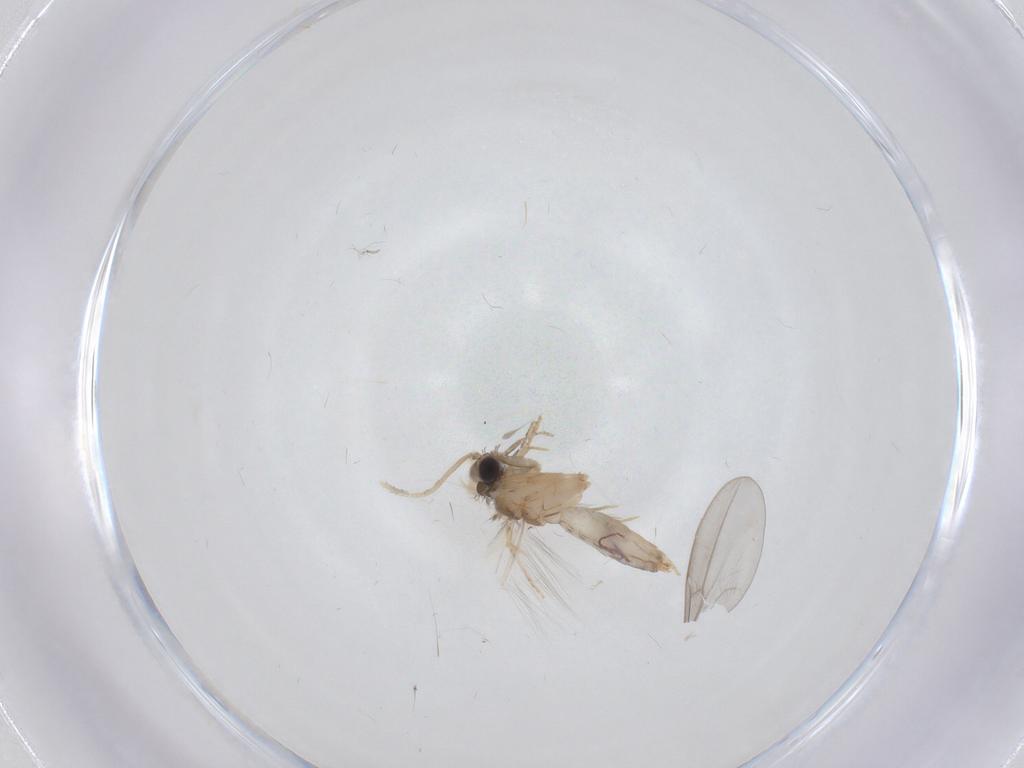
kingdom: Animalia
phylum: Arthropoda
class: Insecta
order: Trichoptera
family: Hydroptilidae
